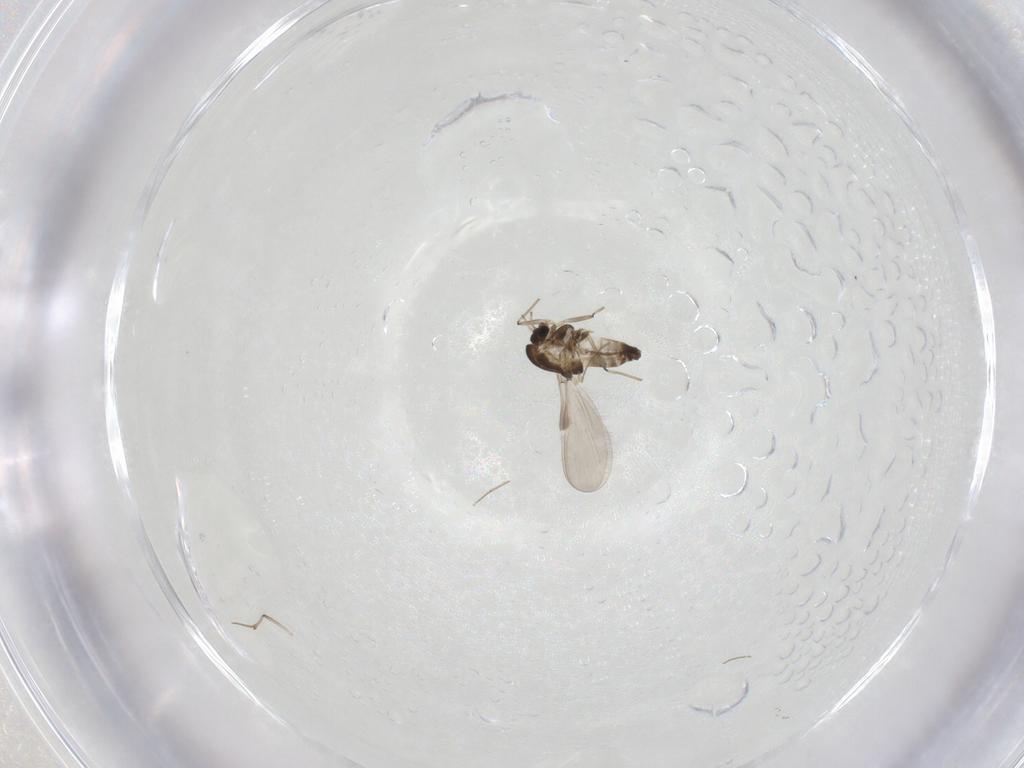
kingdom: Animalia
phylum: Arthropoda
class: Insecta
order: Diptera
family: Chironomidae
